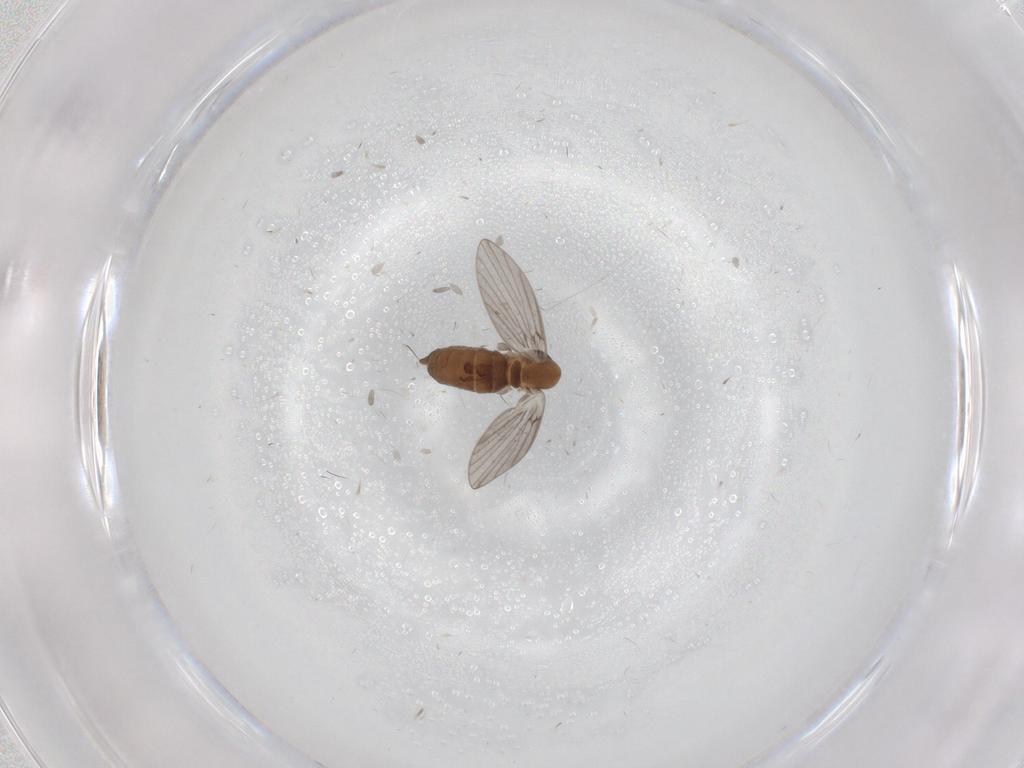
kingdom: Animalia
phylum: Arthropoda
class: Insecta
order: Diptera
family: Psychodidae
